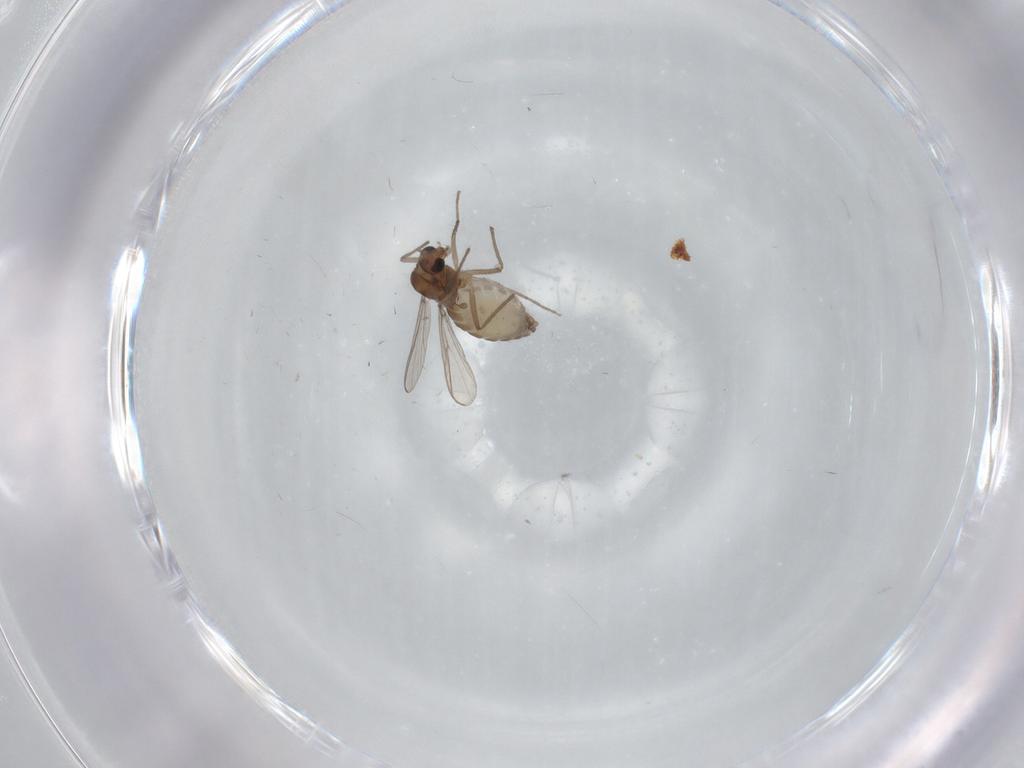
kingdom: Animalia
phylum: Arthropoda
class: Insecta
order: Diptera
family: Chironomidae
